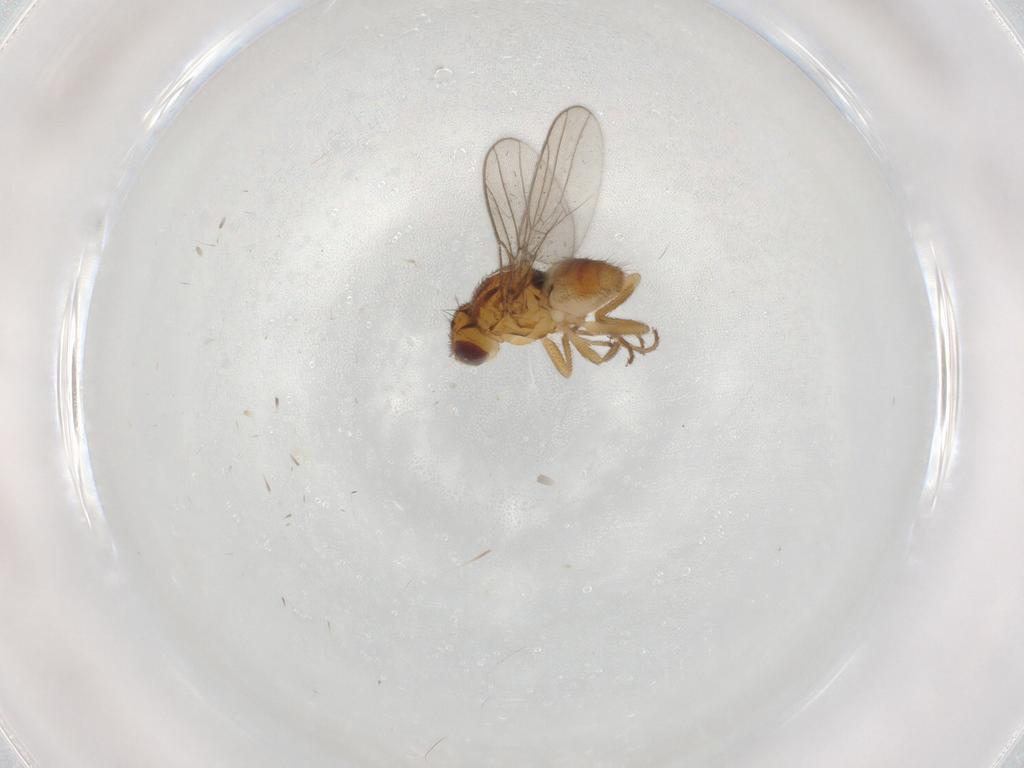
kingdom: Animalia
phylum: Arthropoda
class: Insecta
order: Diptera
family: Chloropidae
